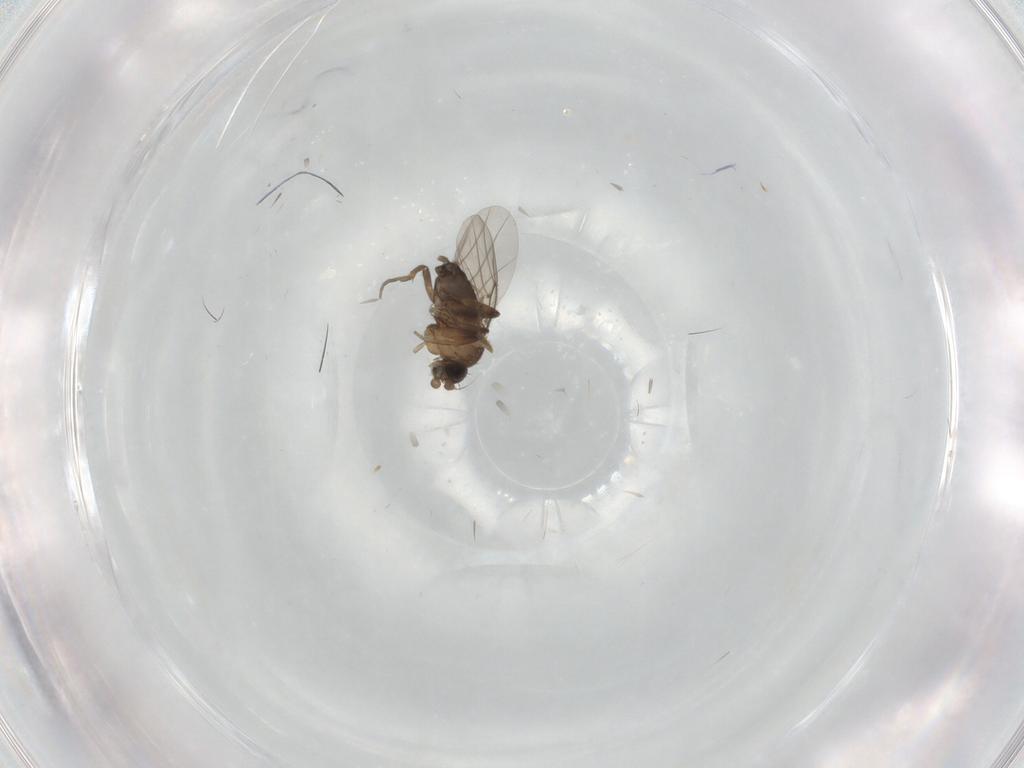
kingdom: Animalia
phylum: Arthropoda
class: Insecta
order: Diptera
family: Ceratopogonidae
